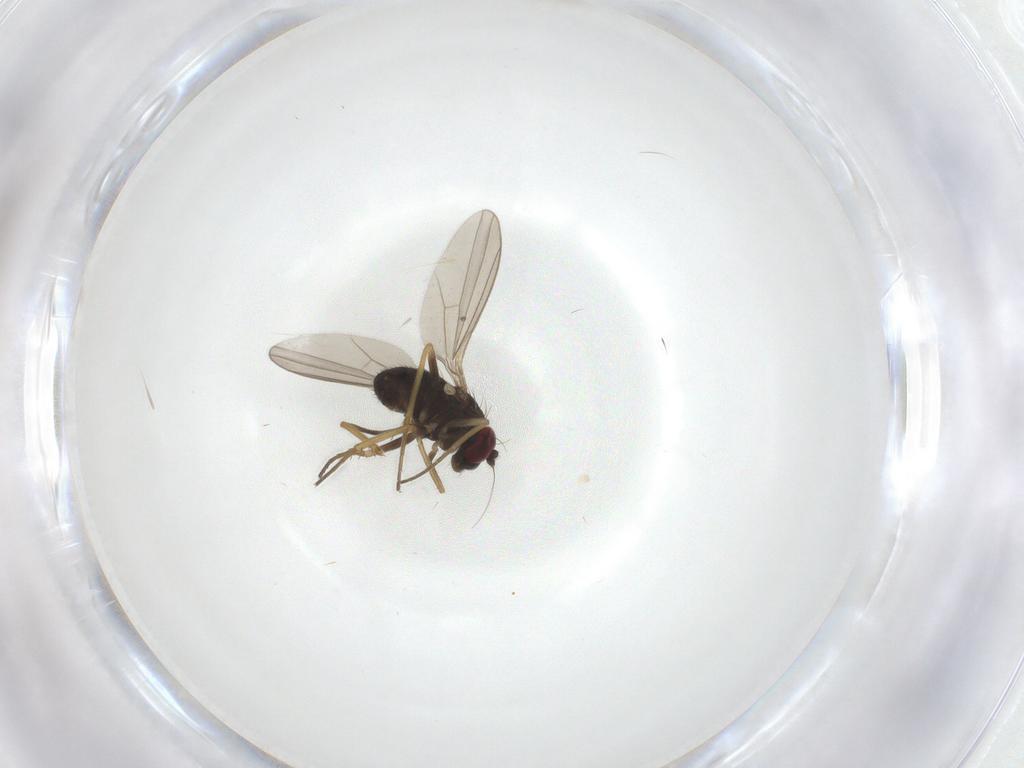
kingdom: Animalia
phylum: Arthropoda
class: Insecta
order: Diptera
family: Dolichopodidae
